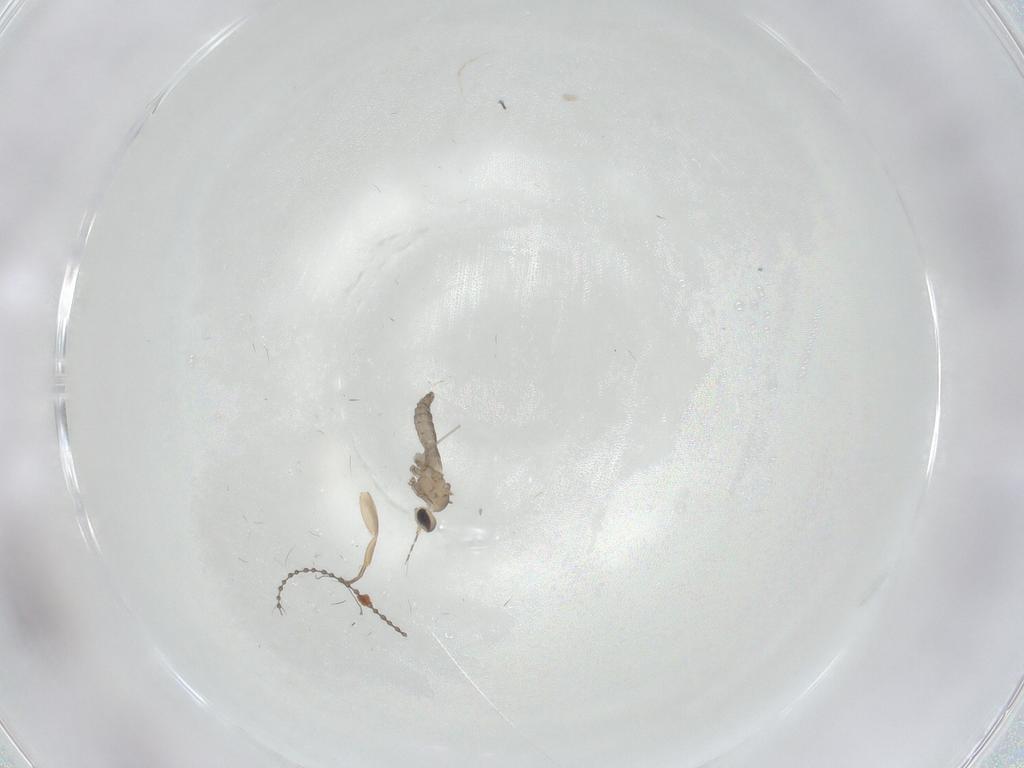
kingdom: Animalia
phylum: Arthropoda
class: Insecta
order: Diptera
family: Cecidomyiidae
